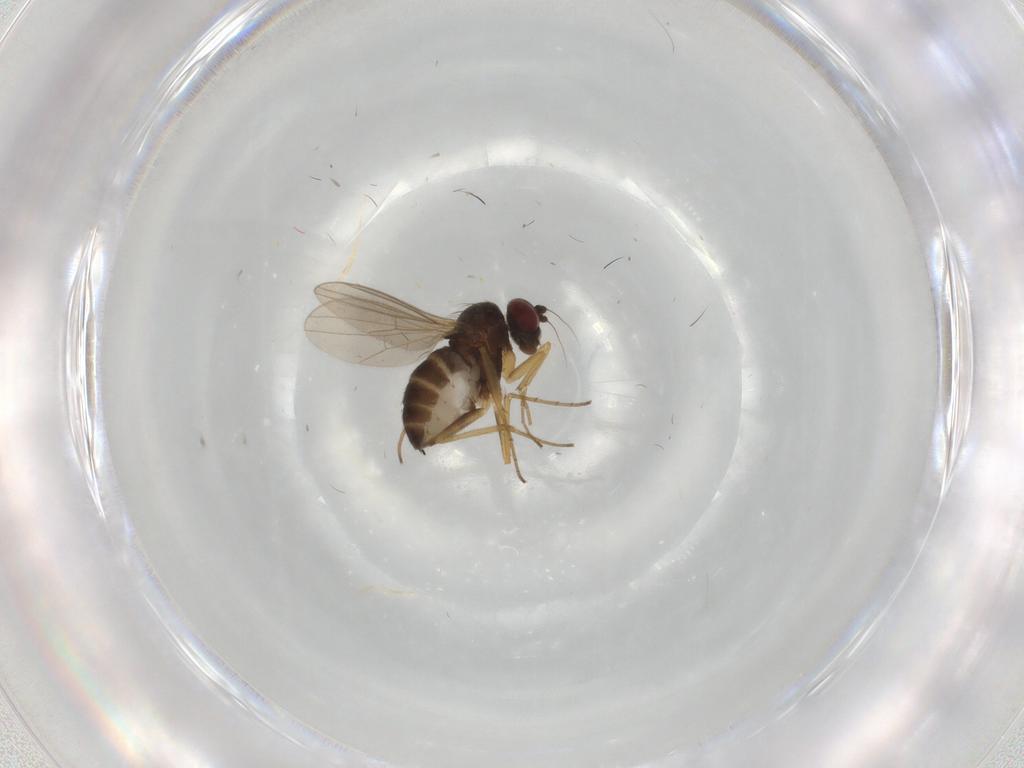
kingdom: Animalia
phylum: Arthropoda
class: Insecta
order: Diptera
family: Dolichopodidae
